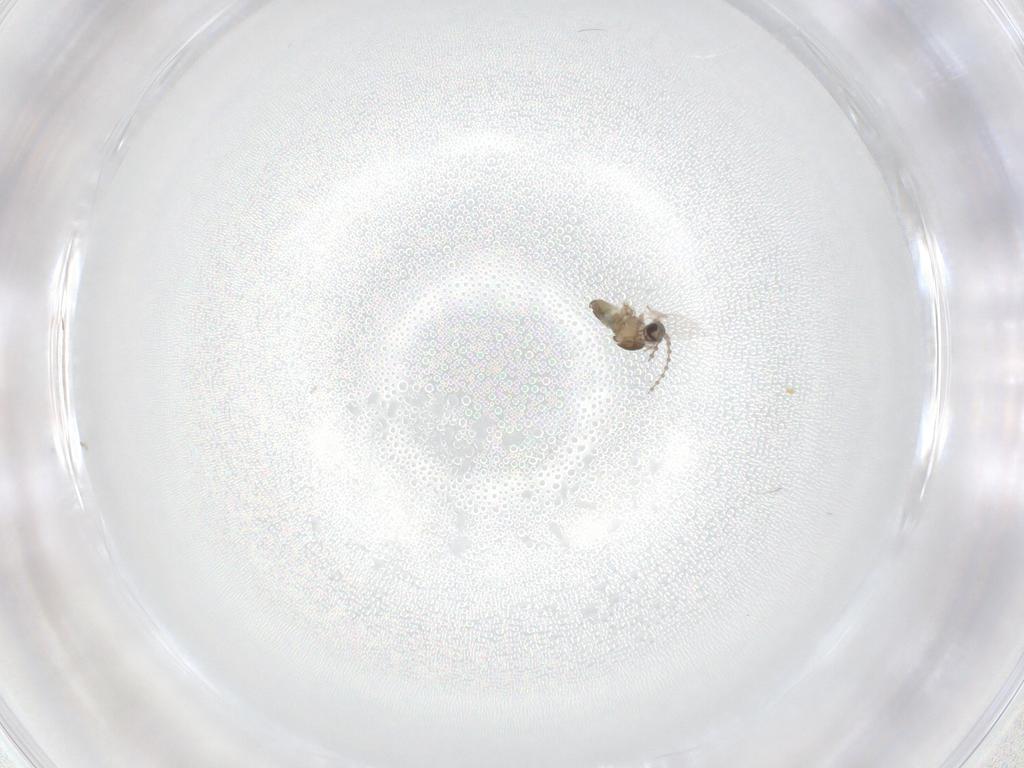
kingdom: Animalia
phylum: Arthropoda
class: Insecta
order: Diptera
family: Cecidomyiidae
